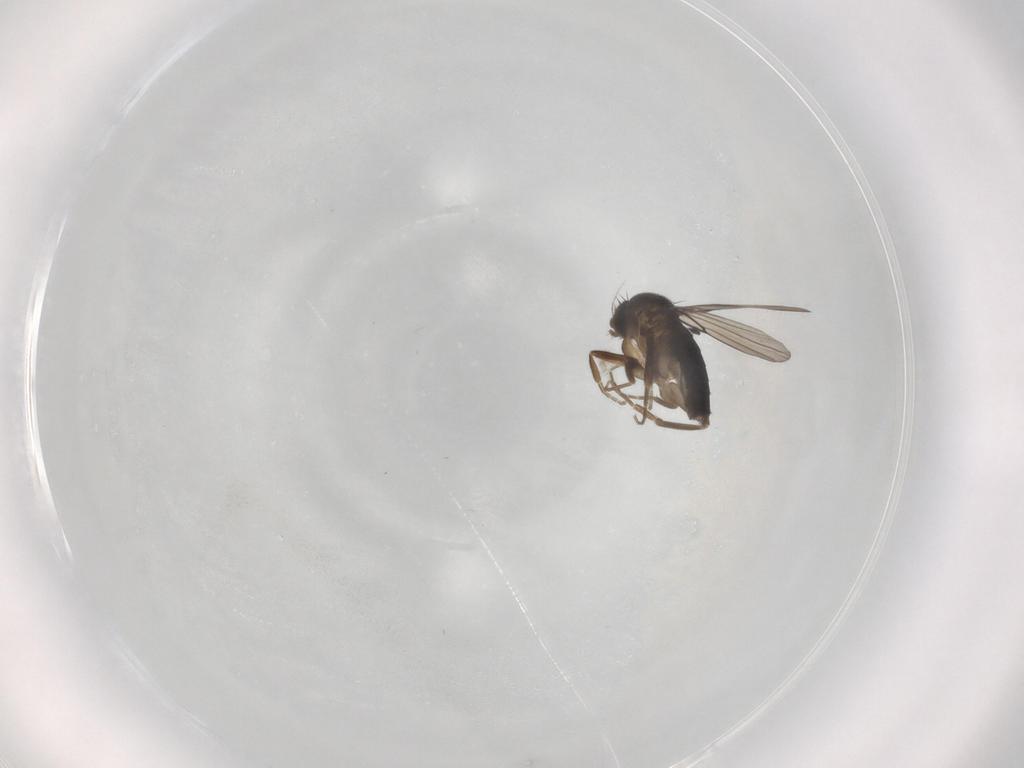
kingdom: Animalia
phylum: Arthropoda
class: Insecta
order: Diptera
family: Phoridae
